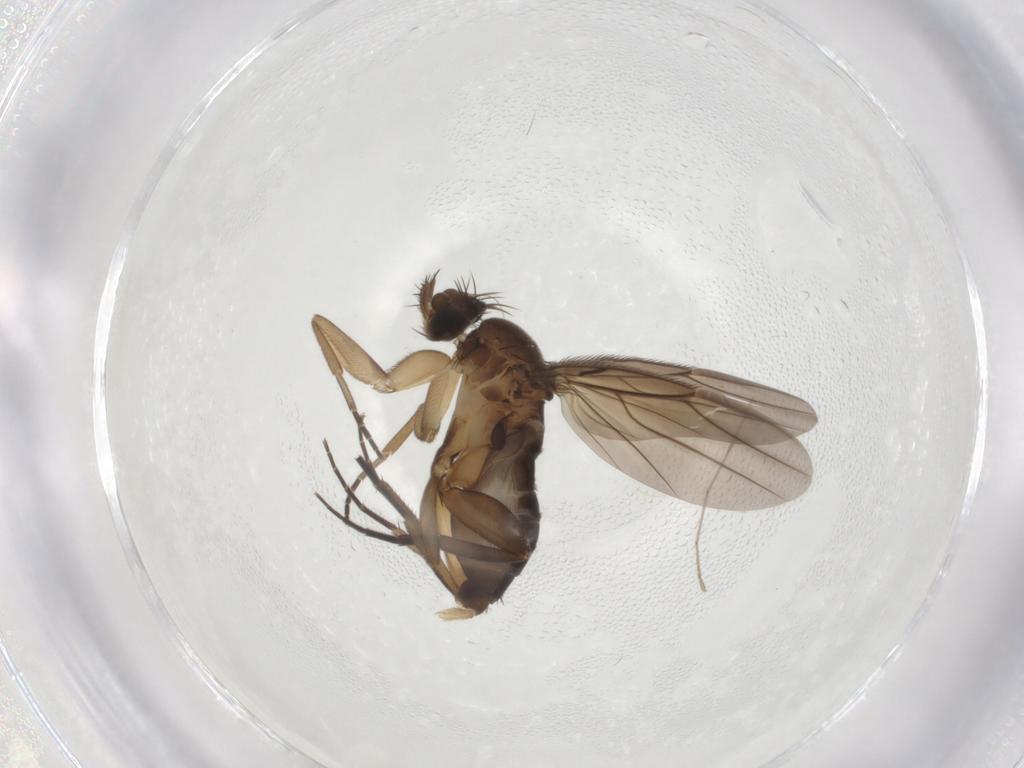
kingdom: Animalia
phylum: Arthropoda
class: Insecta
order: Diptera
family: Phoridae
